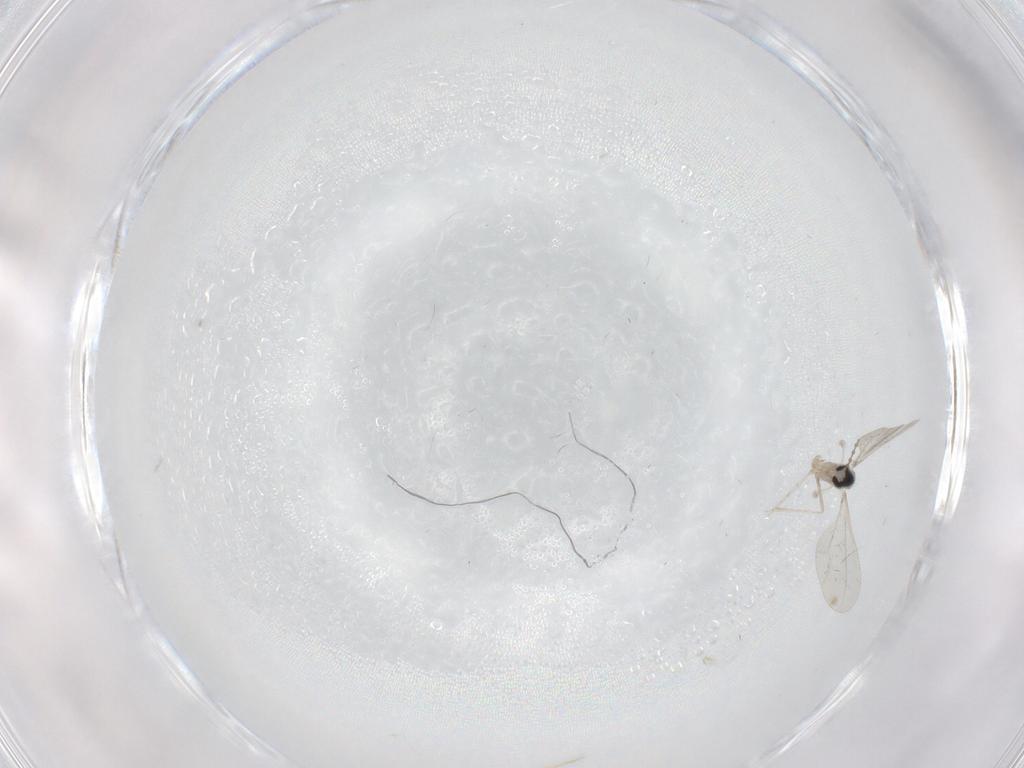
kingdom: Animalia
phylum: Arthropoda
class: Insecta
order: Diptera
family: Cecidomyiidae
